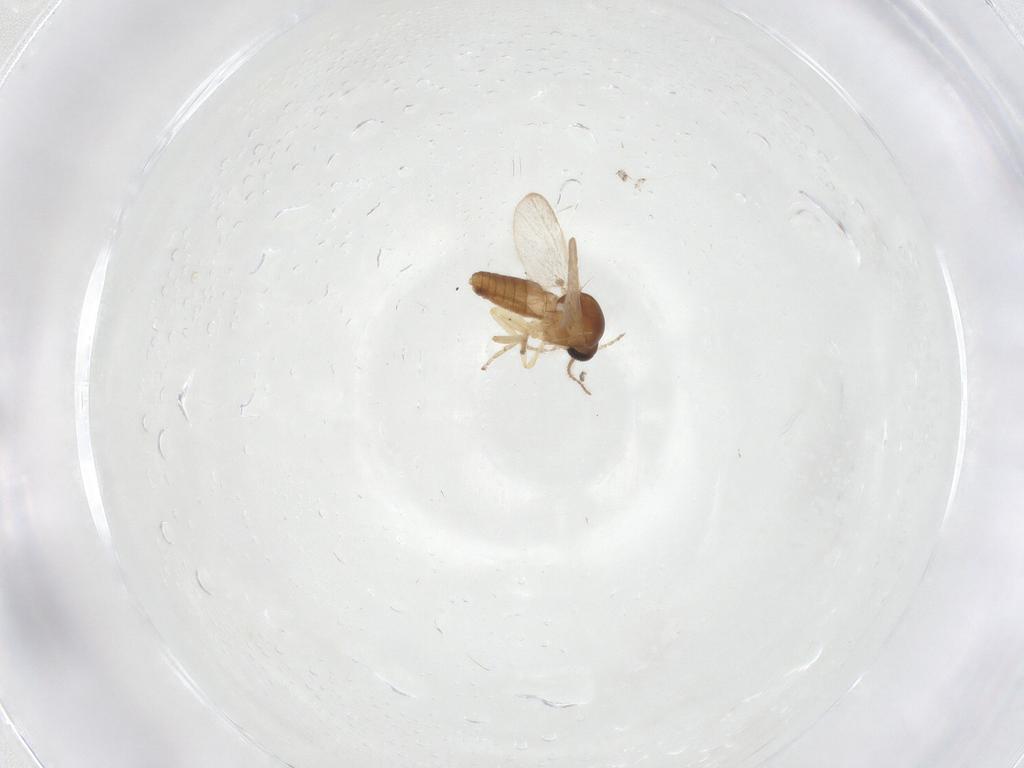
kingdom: Animalia
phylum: Arthropoda
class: Insecta
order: Diptera
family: Ceratopogonidae
